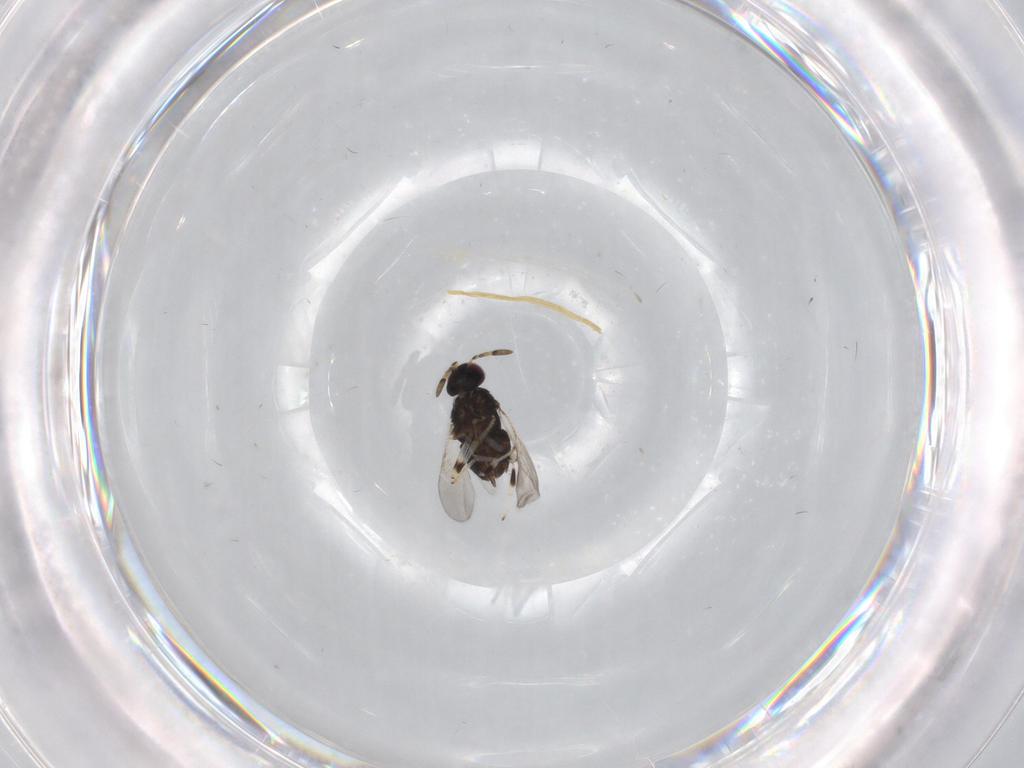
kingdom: Animalia
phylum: Arthropoda
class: Insecta
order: Hymenoptera
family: Encyrtidae
